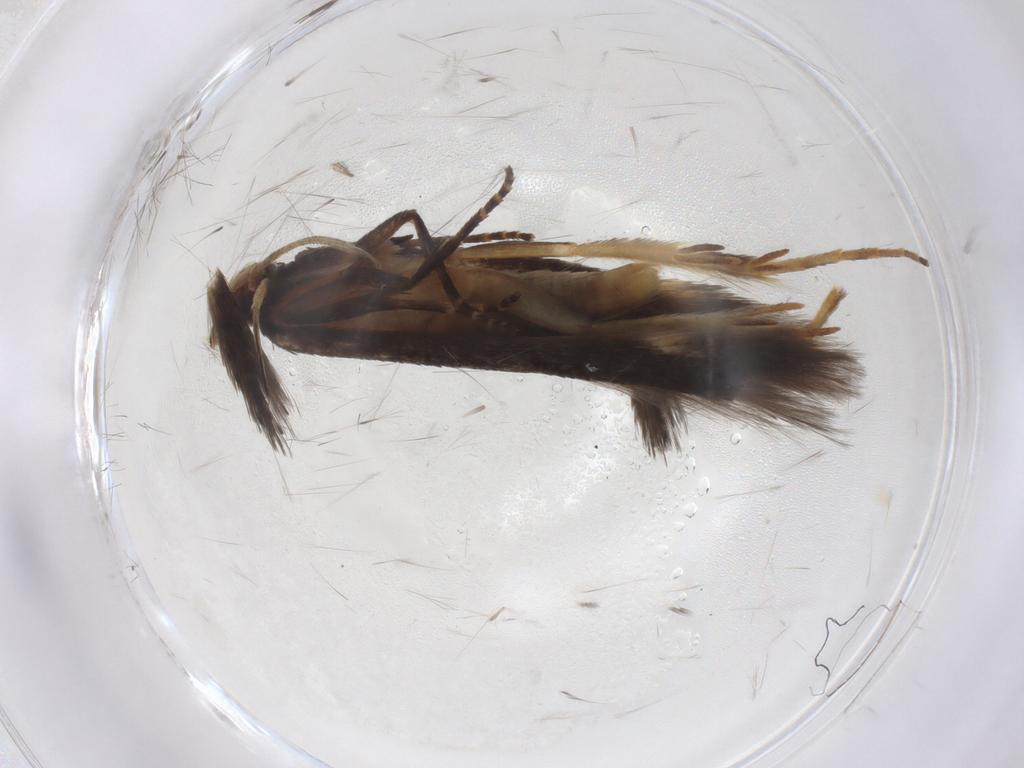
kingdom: Animalia
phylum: Arthropoda
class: Insecta
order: Lepidoptera
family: Gelechiidae
